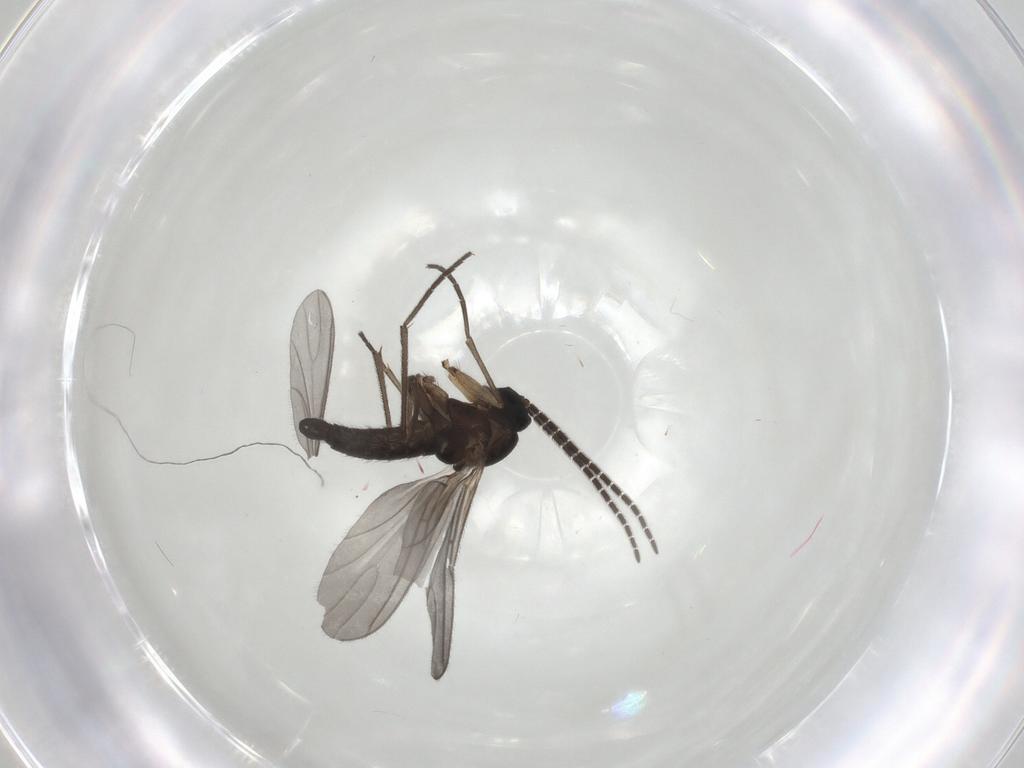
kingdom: Animalia
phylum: Arthropoda
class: Insecta
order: Diptera
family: Sciaridae
